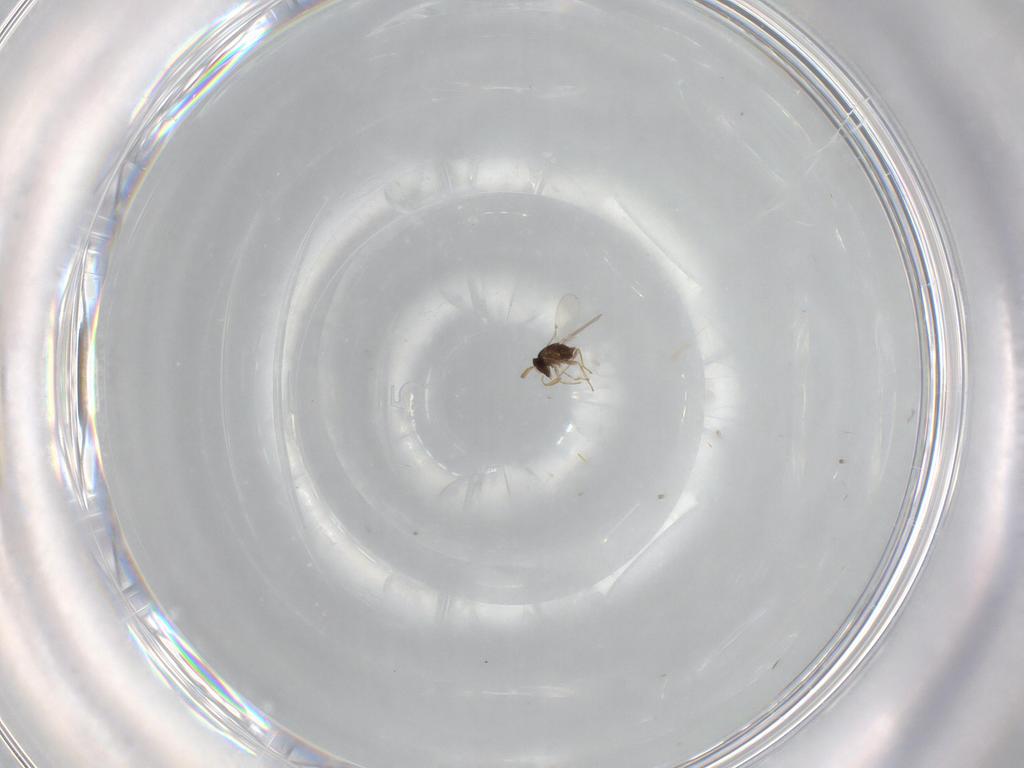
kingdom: Animalia
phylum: Arthropoda
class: Insecta
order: Hymenoptera
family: Encyrtidae
